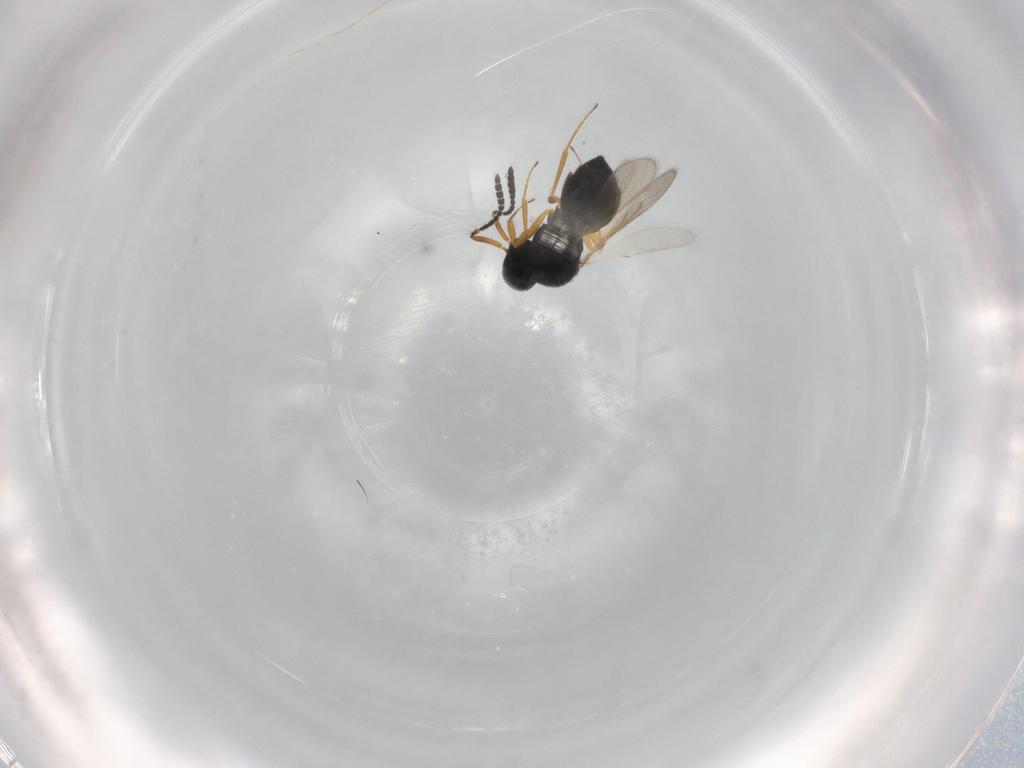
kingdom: Animalia
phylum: Arthropoda
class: Insecta
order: Hymenoptera
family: Scelionidae
